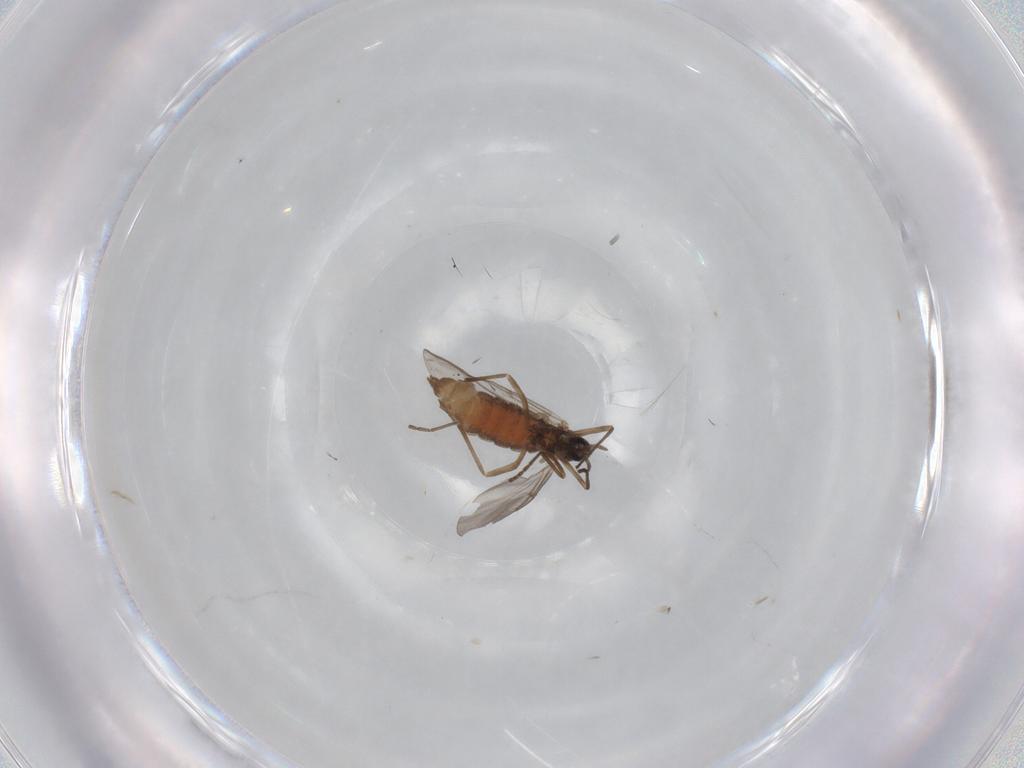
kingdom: Animalia
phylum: Arthropoda
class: Insecta
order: Diptera
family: Cecidomyiidae
